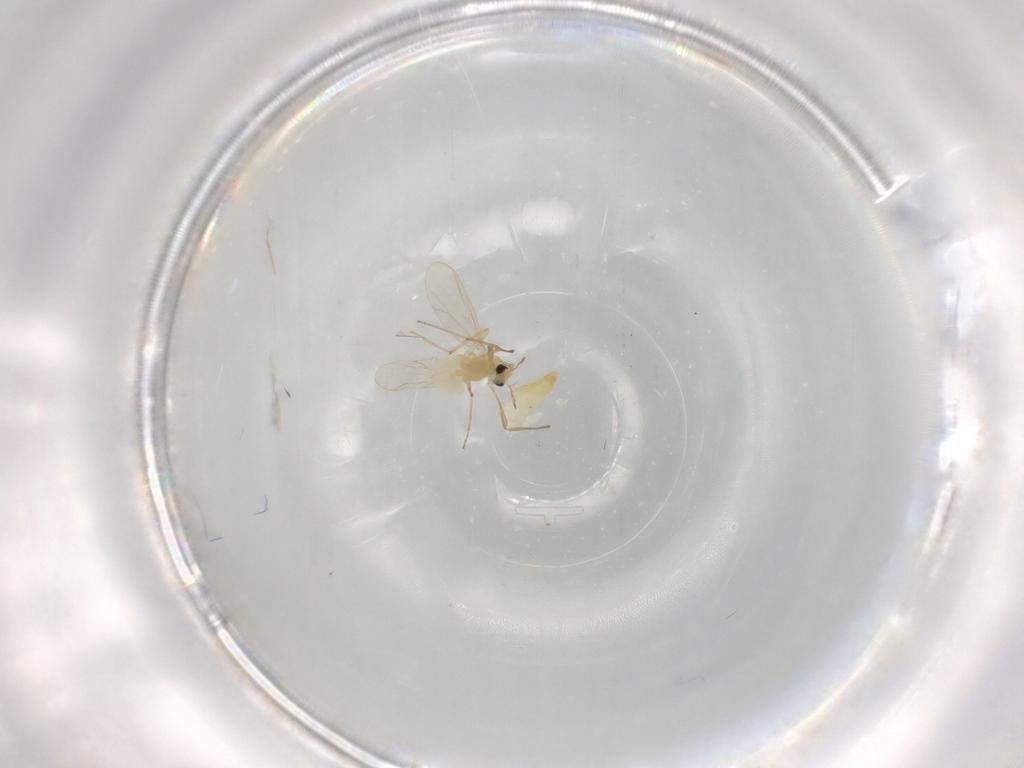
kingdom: Animalia
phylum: Arthropoda
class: Insecta
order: Diptera
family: Chironomidae
